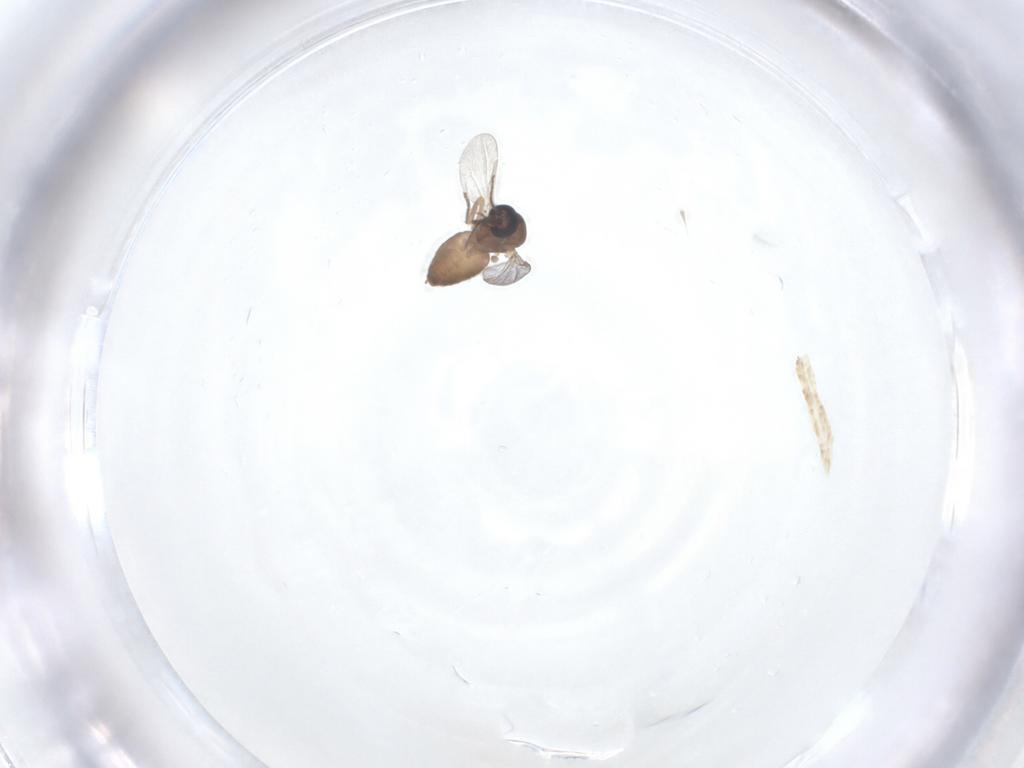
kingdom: Animalia
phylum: Arthropoda
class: Insecta
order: Diptera
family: Ceratopogonidae
